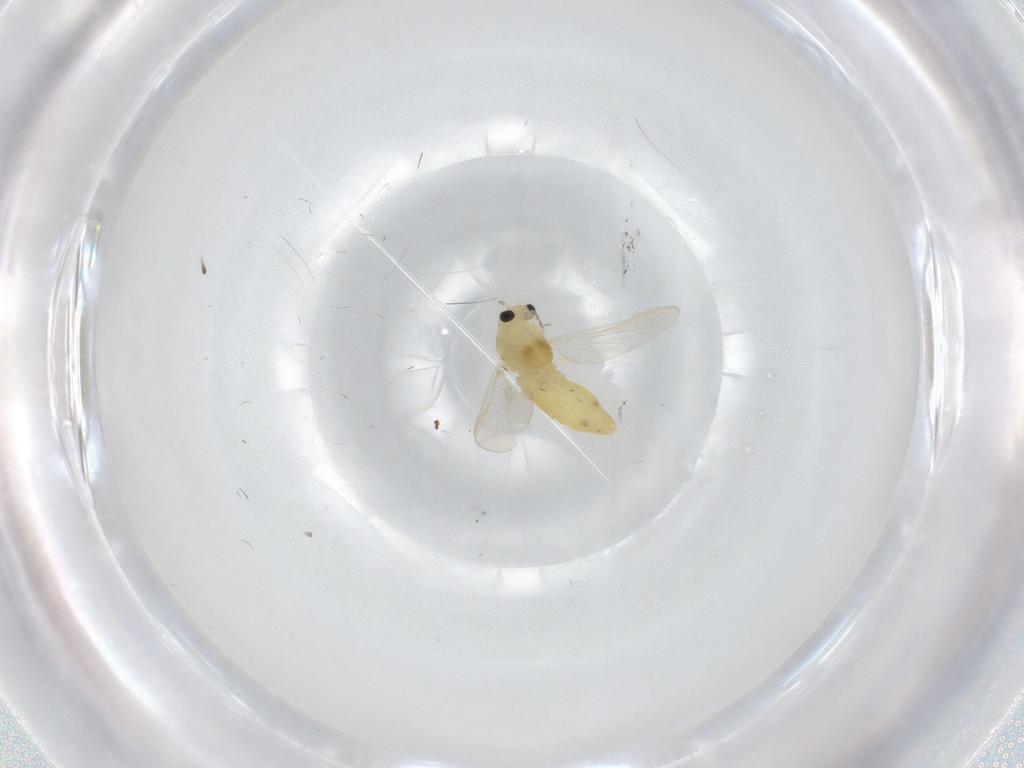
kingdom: Animalia
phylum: Arthropoda
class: Insecta
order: Diptera
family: Chironomidae
